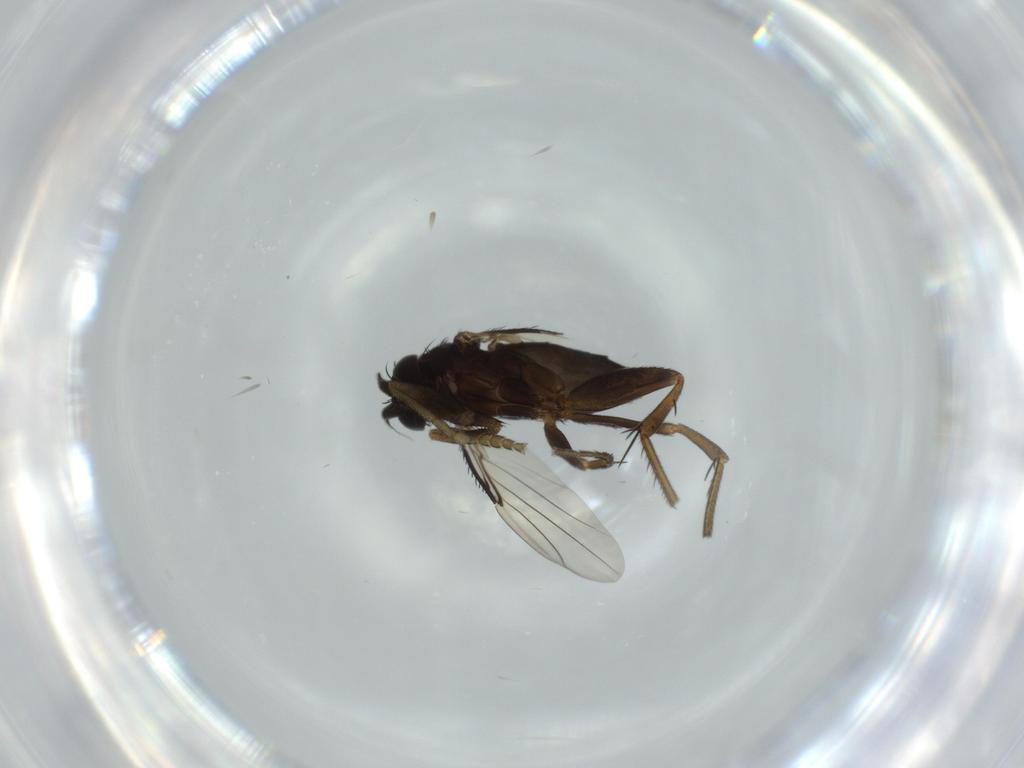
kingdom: Animalia
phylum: Arthropoda
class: Insecta
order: Diptera
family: Phoridae
